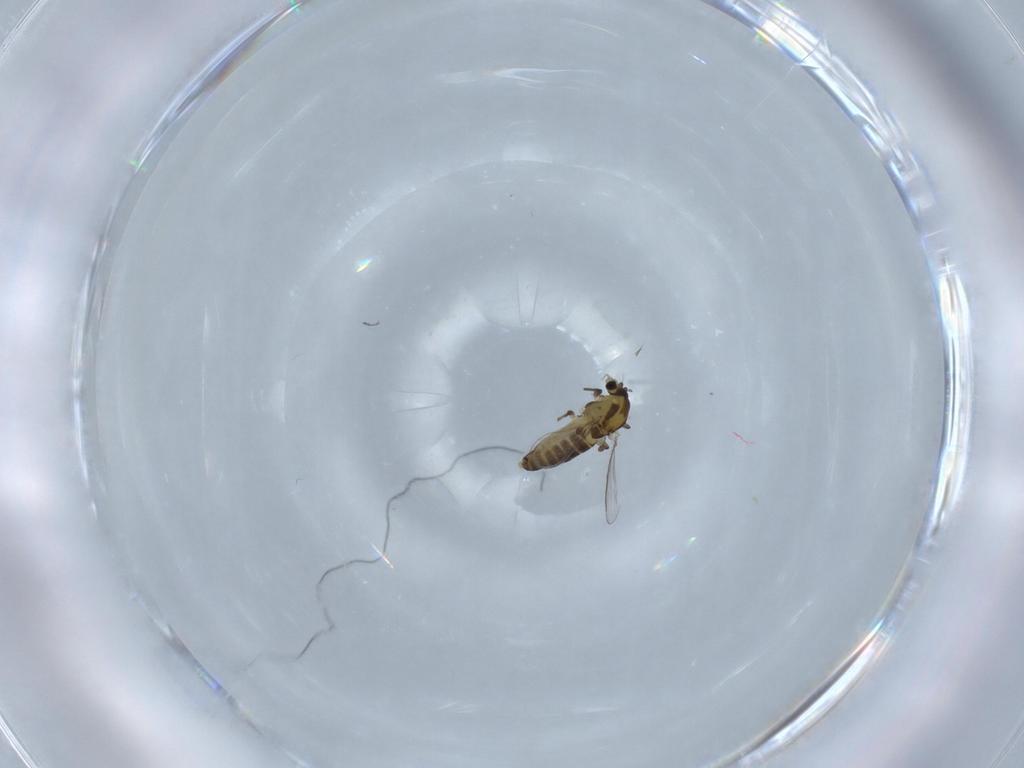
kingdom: Animalia
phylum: Arthropoda
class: Insecta
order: Diptera
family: Chironomidae
